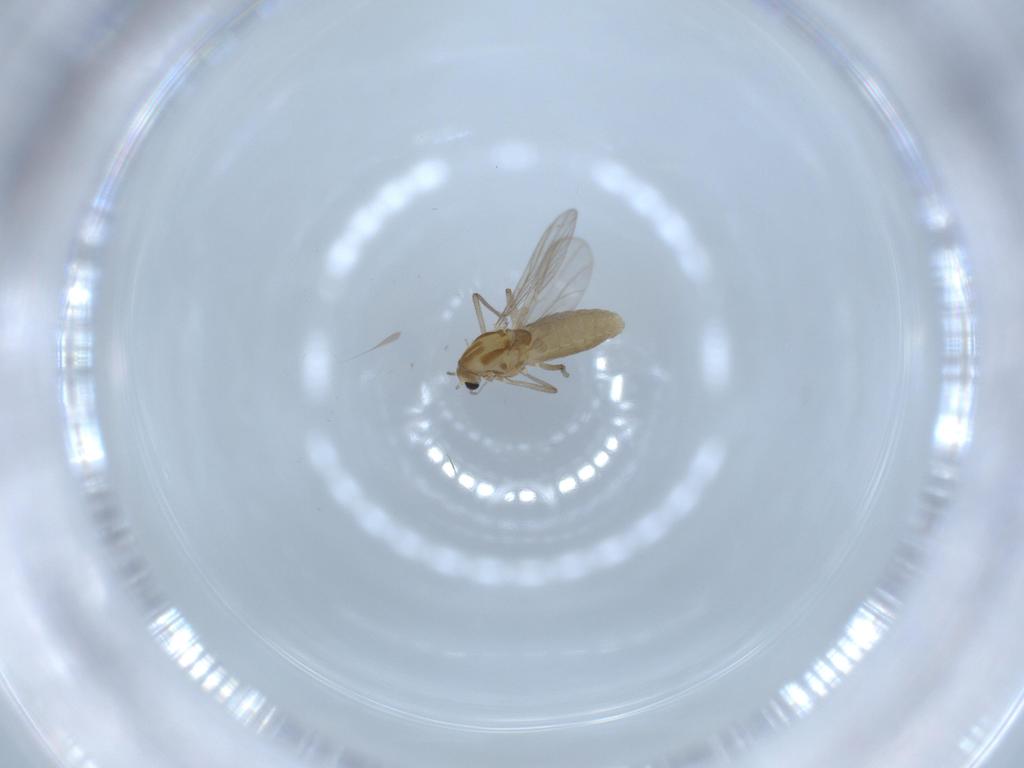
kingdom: Animalia
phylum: Arthropoda
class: Insecta
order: Diptera
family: Chironomidae
